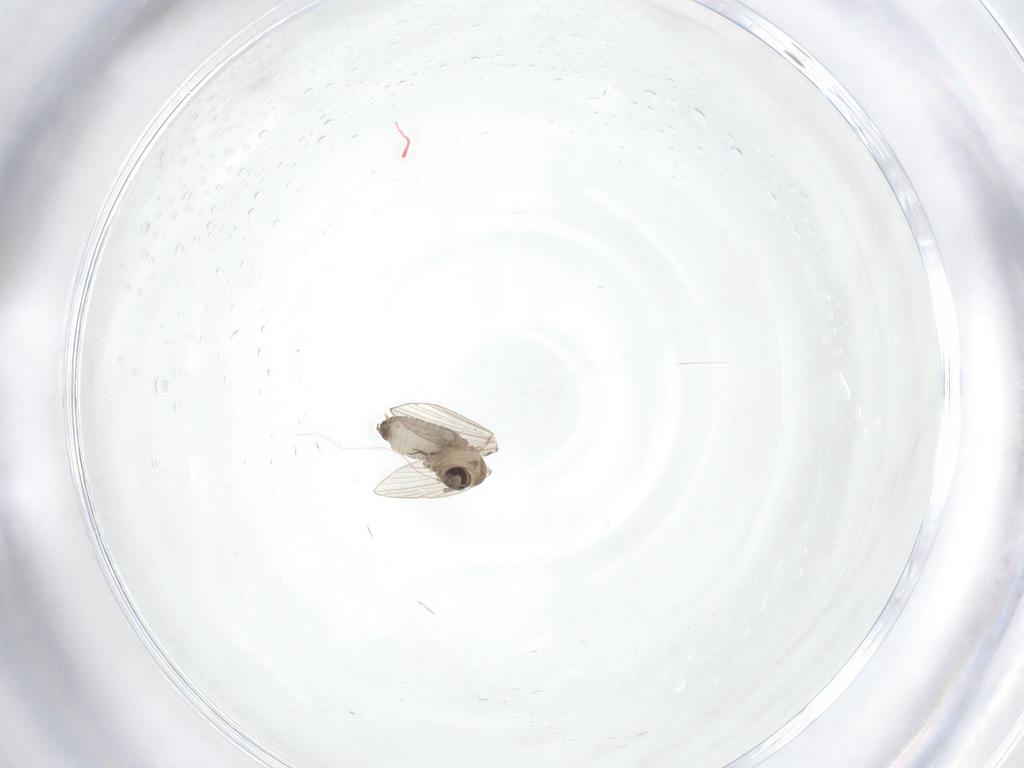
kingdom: Animalia
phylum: Arthropoda
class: Insecta
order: Diptera
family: Psychodidae
